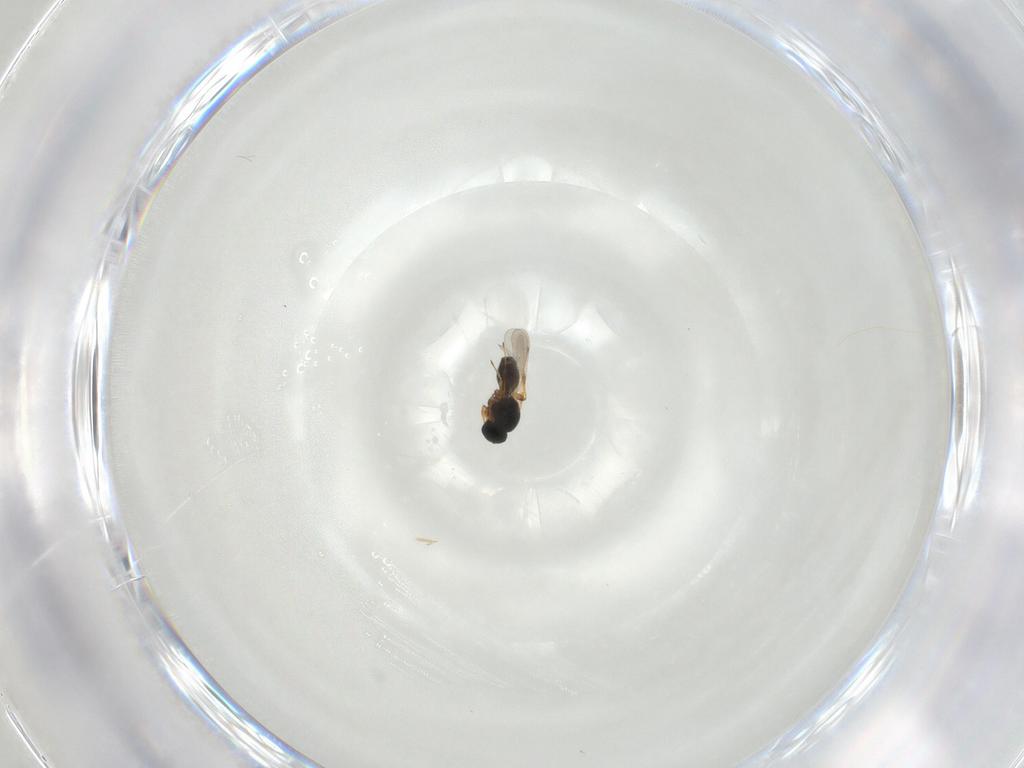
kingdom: Animalia
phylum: Arthropoda
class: Insecta
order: Hymenoptera
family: Platygastridae
